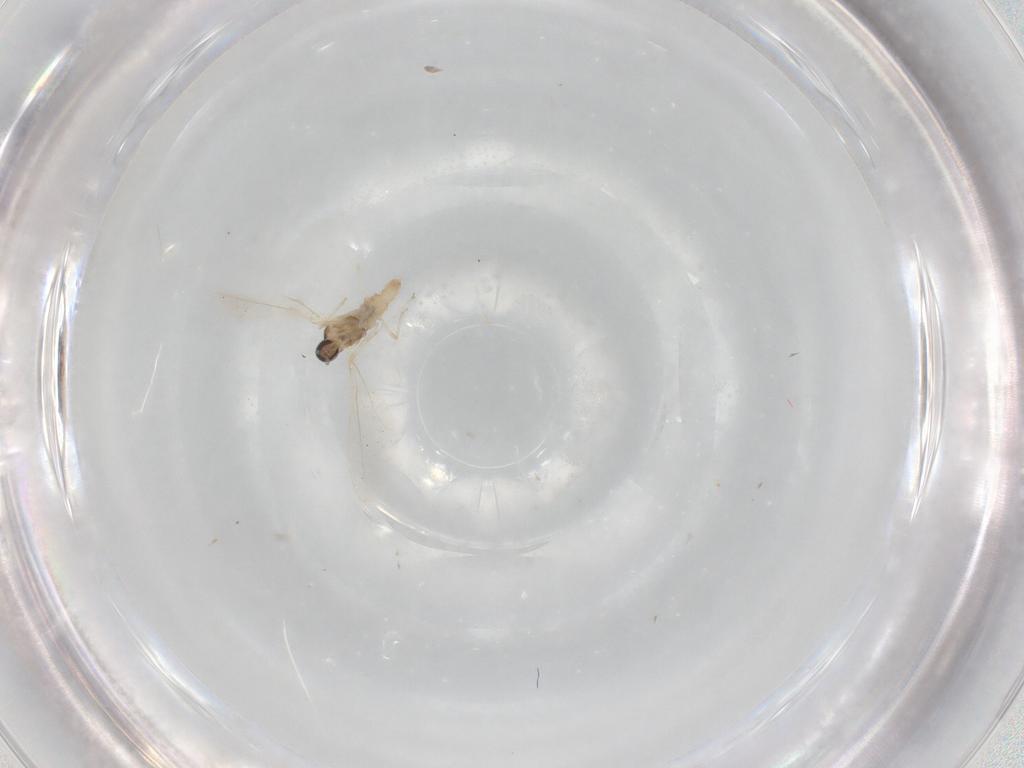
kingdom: Animalia
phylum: Arthropoda
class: Insecta
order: Diptera
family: Cecidomyiidae
